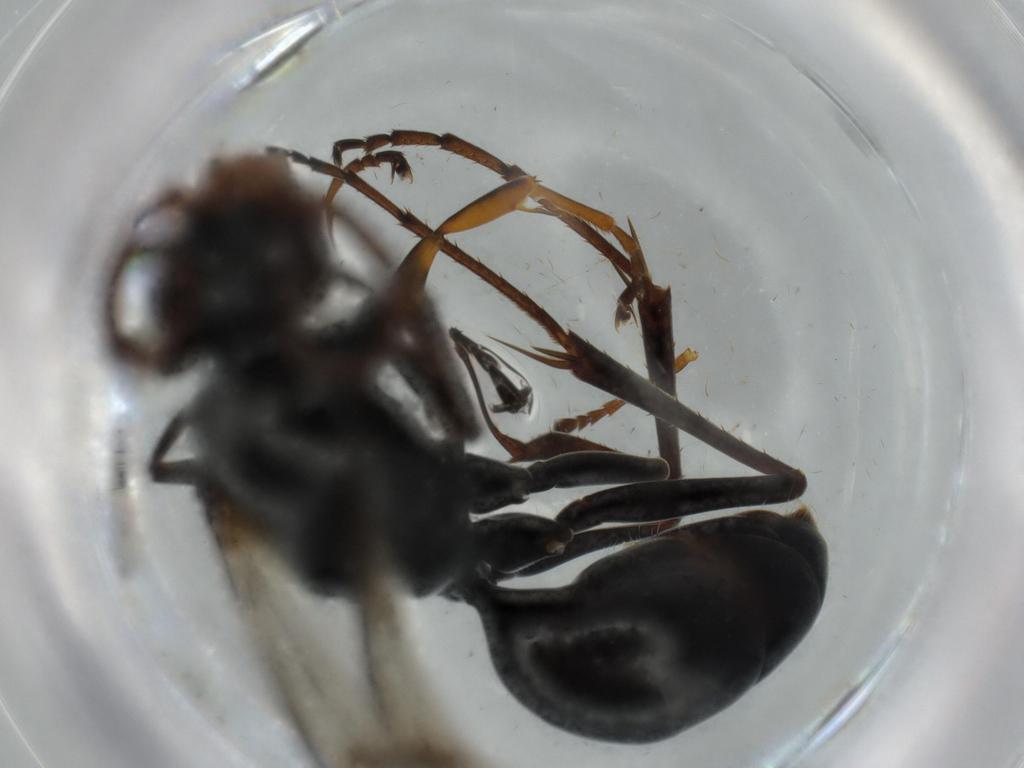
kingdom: Animalia
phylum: Arthropoda
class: Insecta
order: Hymenoptera
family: Pompilidae
